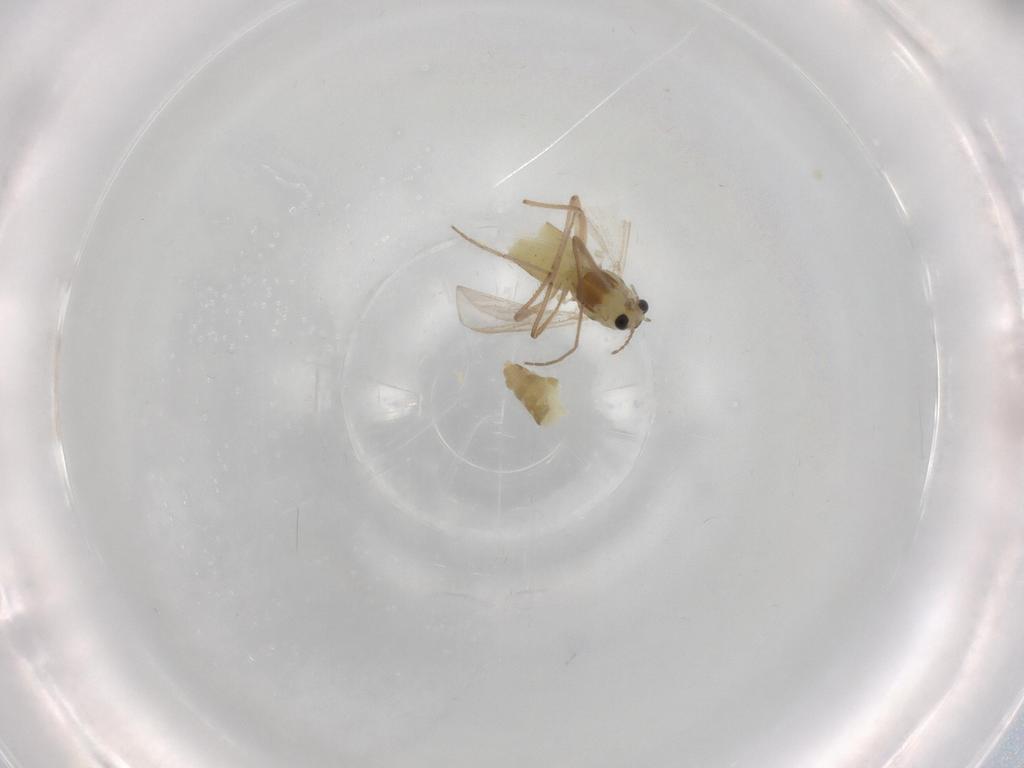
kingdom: Animalia
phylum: Arthropoda
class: Insecta
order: Diptera
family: Chironomidae
